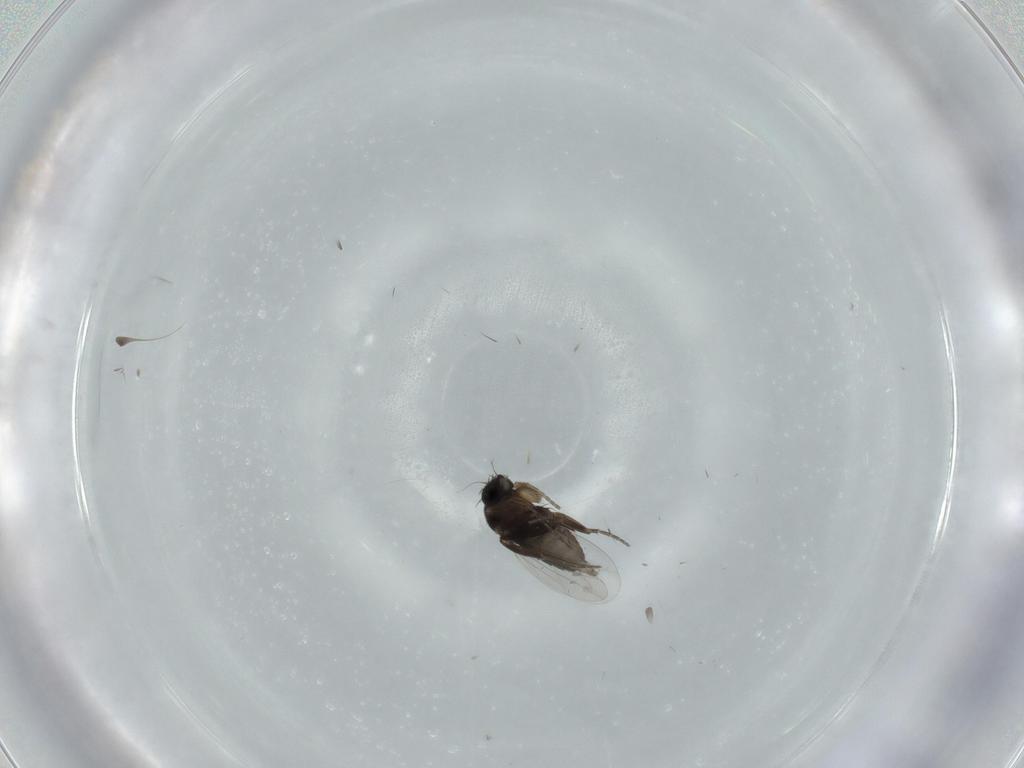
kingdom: Animalia
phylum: Arthropoda
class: Insecta
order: Diptera
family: Phoridae
